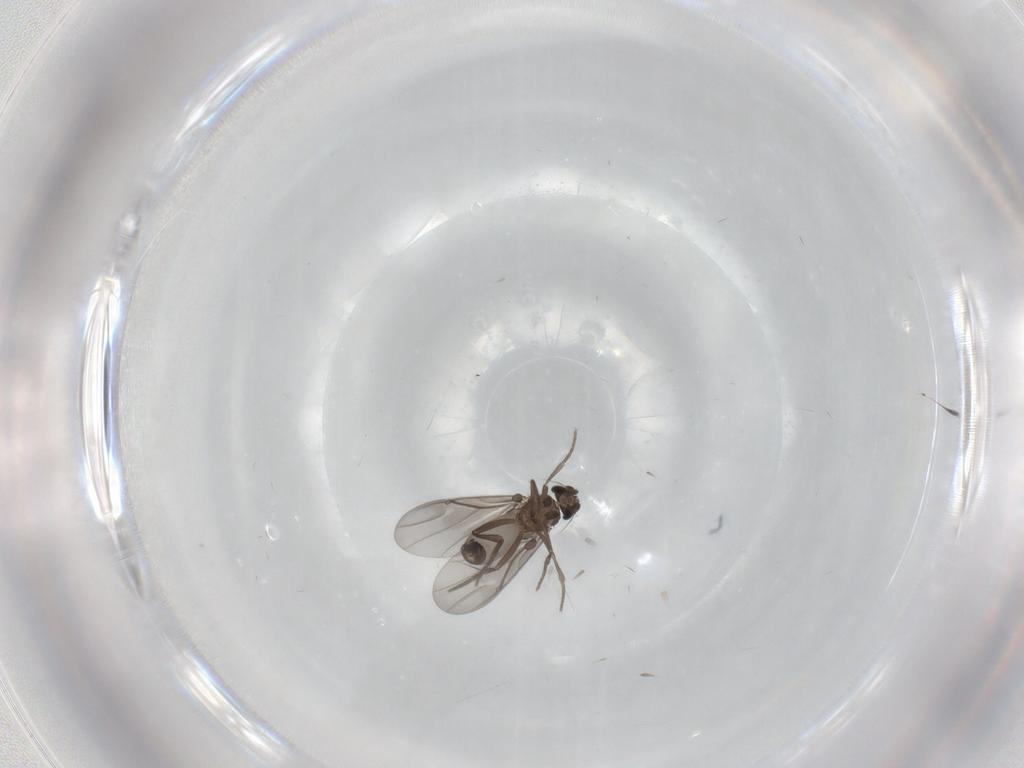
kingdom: Animalia
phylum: Arthropoda
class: Insecta
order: Diptera
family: Phoridae
